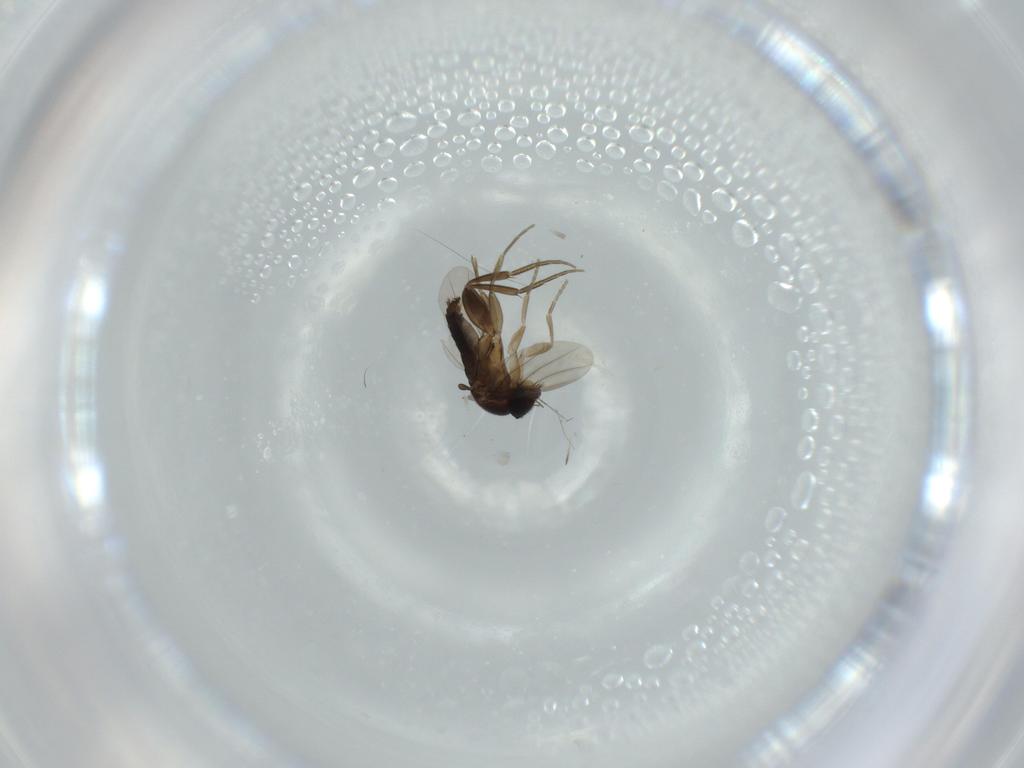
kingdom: Animalia
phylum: Arthropoda
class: Insecta
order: Diptera
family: Phoridae
